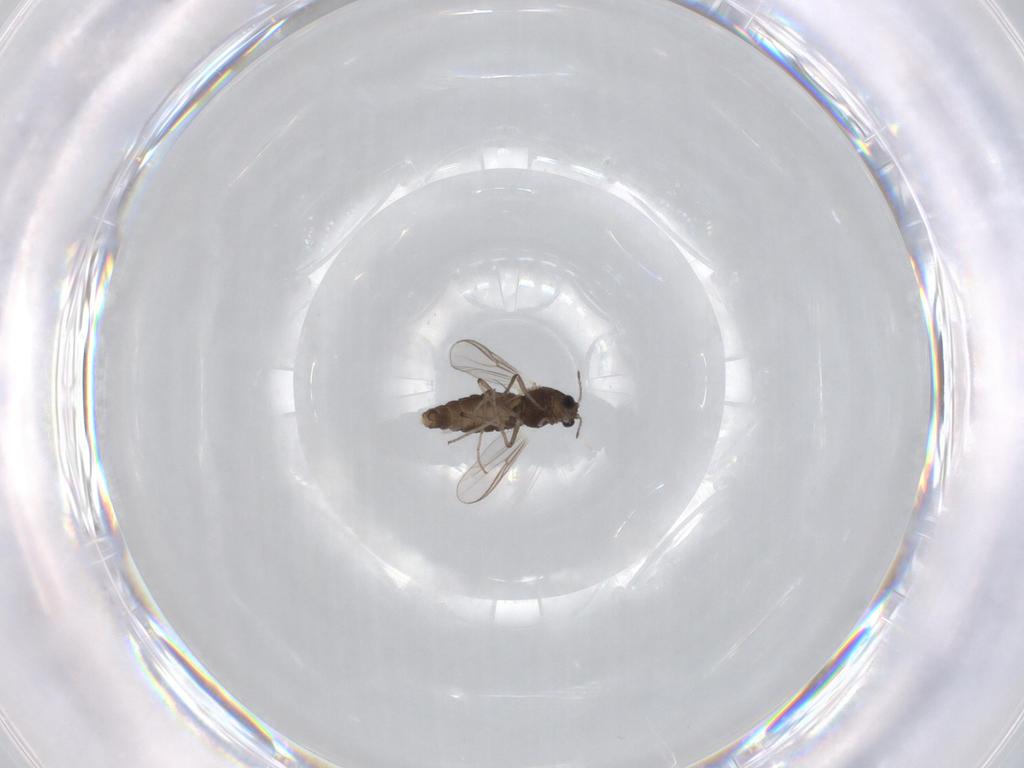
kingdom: Animalia
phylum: Arthropoda
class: Insecta
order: Diptera
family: Chironomidae
